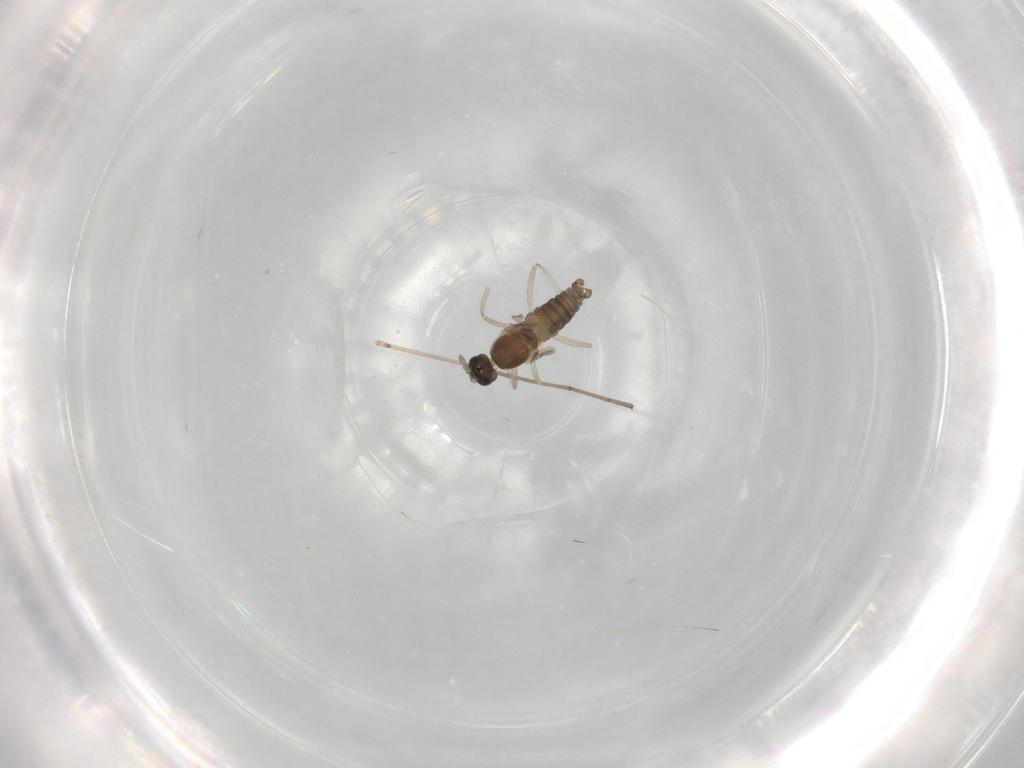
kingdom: Animalia
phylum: Arthropoda
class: Insecta
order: Diptera
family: Cecidomyiidae
